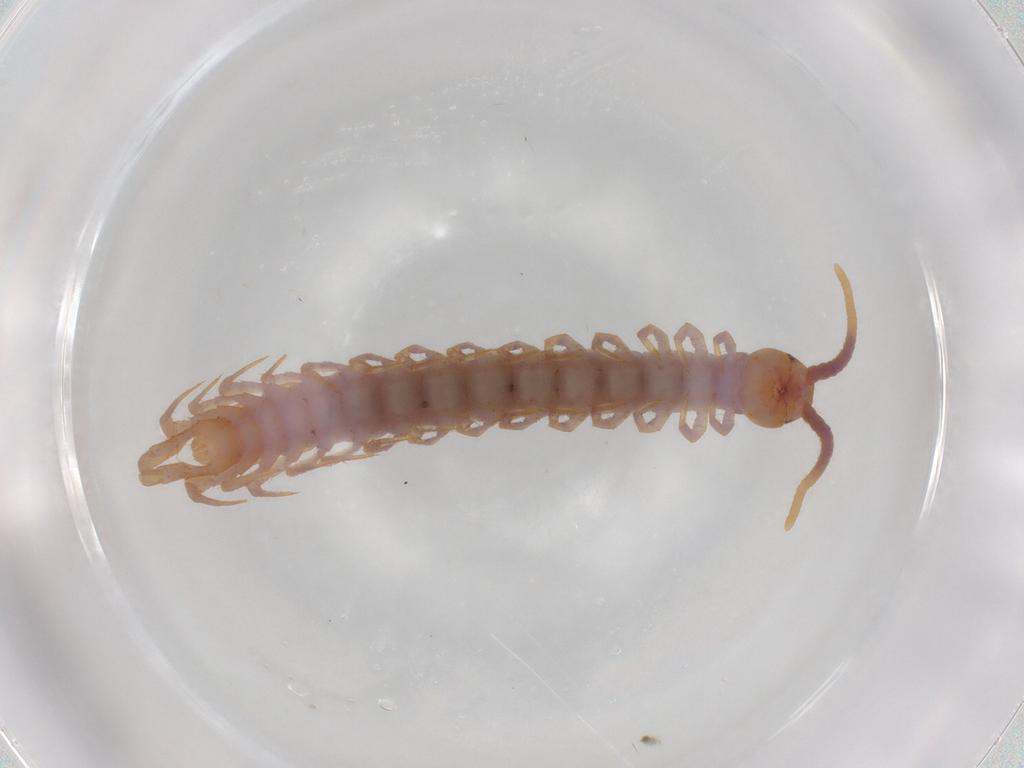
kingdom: Animalia
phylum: Arthropoda
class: Chilopoda
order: Lithobiomorpha
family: Lithobiidae
